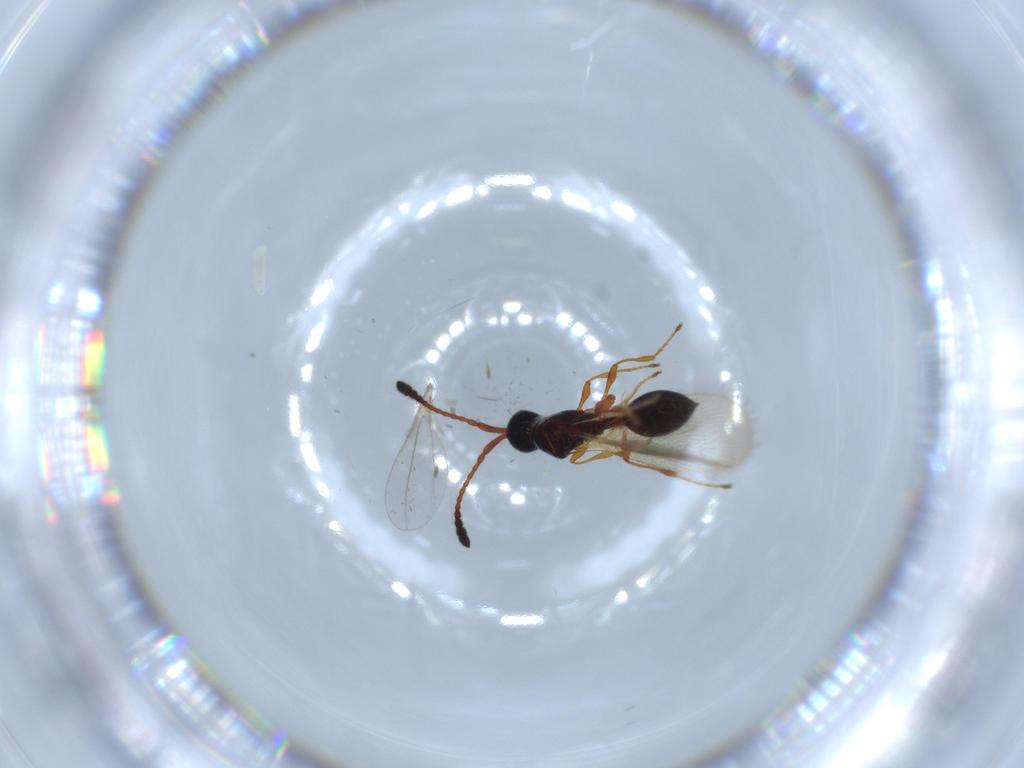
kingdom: Animalia
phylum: Arthropoda
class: Insecta
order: Hymenoptera
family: Diapriidae
